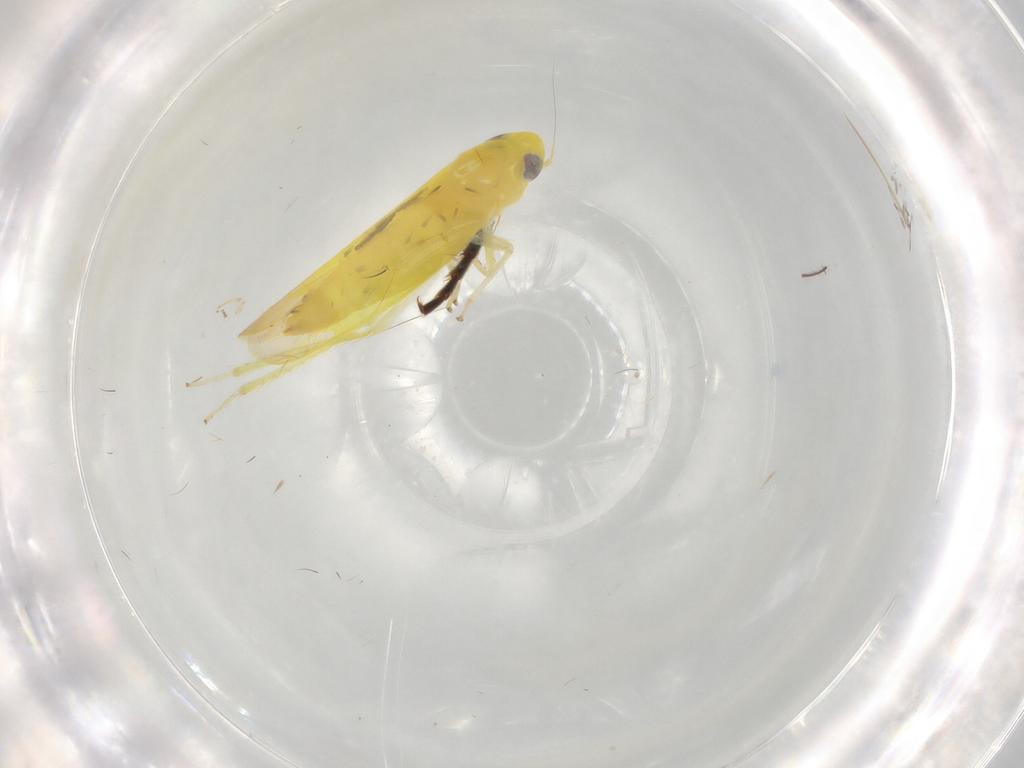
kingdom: Animalia
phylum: Arthropoda
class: Insecta
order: Hemiptera
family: Cicadellidae
